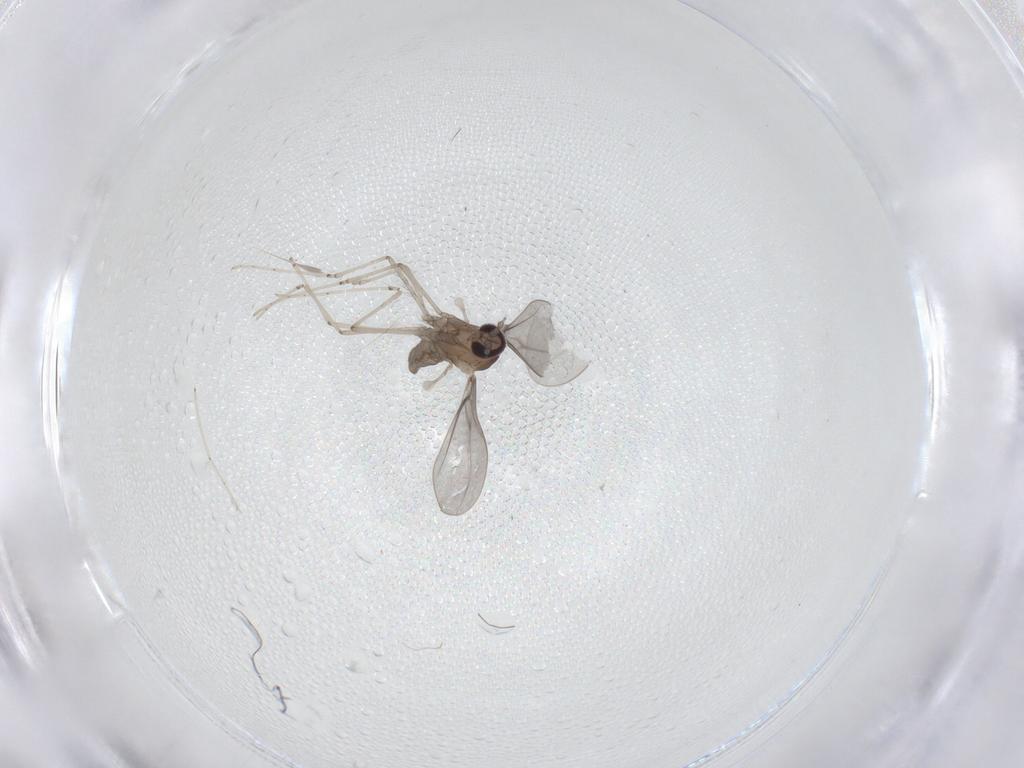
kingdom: Animalia
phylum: Arthropoda
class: Insecta
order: Diptera
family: Cecidomyiidae
